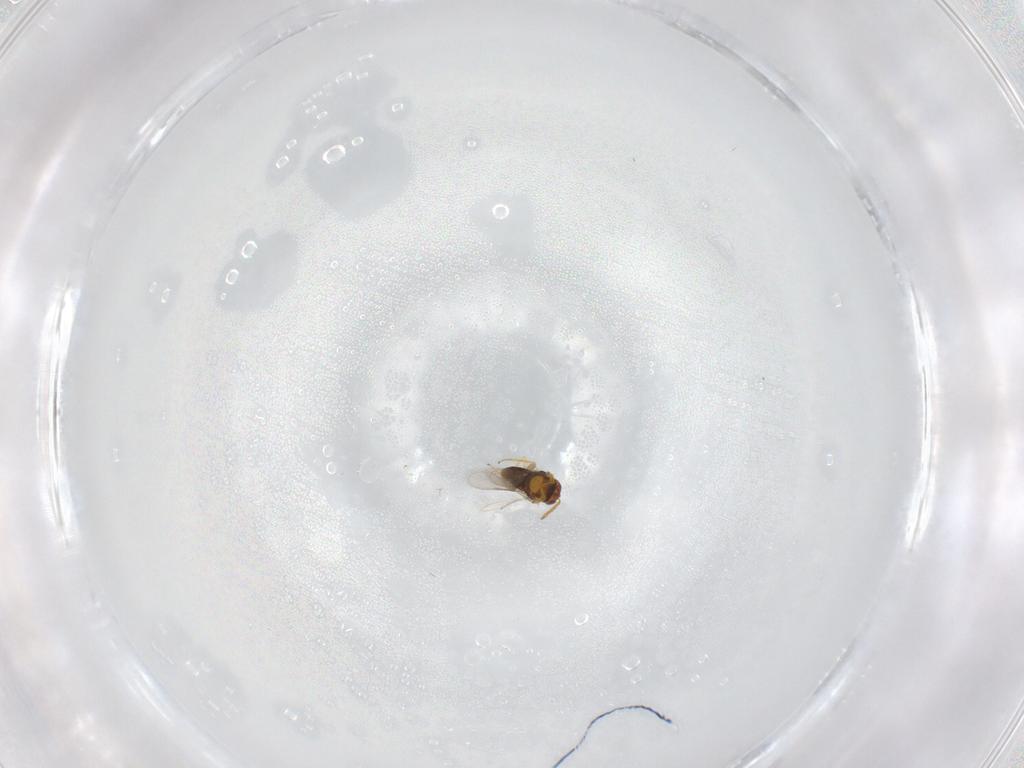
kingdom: Animalia
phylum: Arthropoda
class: Insecta
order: Hymenoptera
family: Aphelinidae
